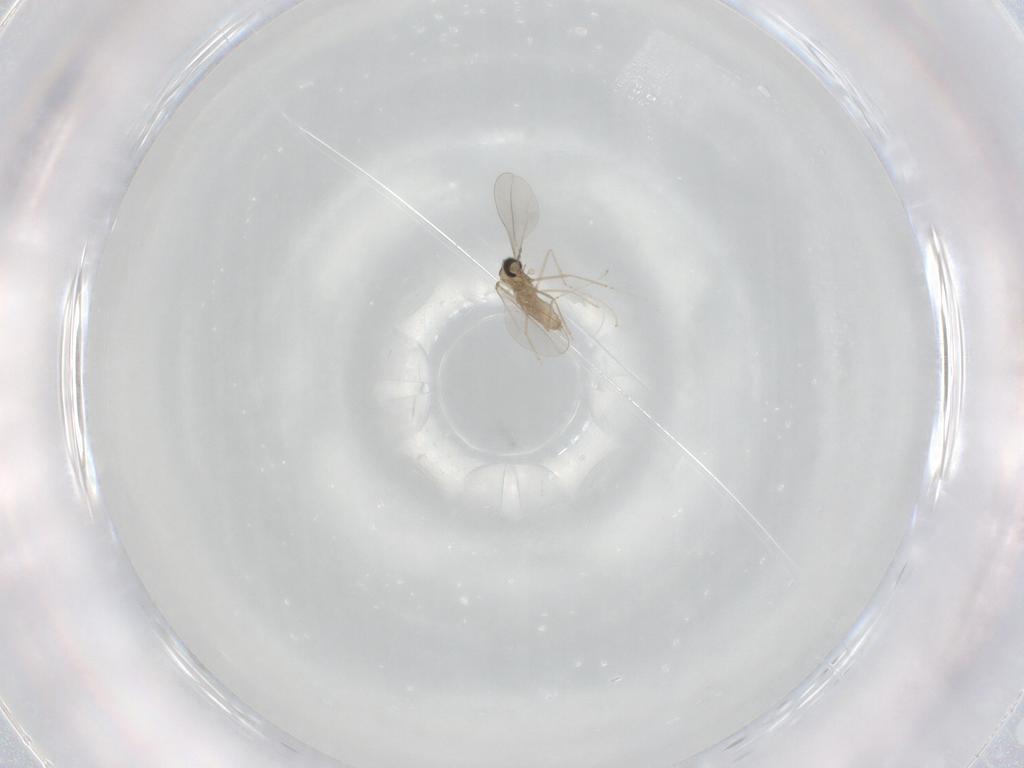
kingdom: Animalia
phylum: Arthropoda
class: Insecta
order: Diptera
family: Cecidomyiidae
